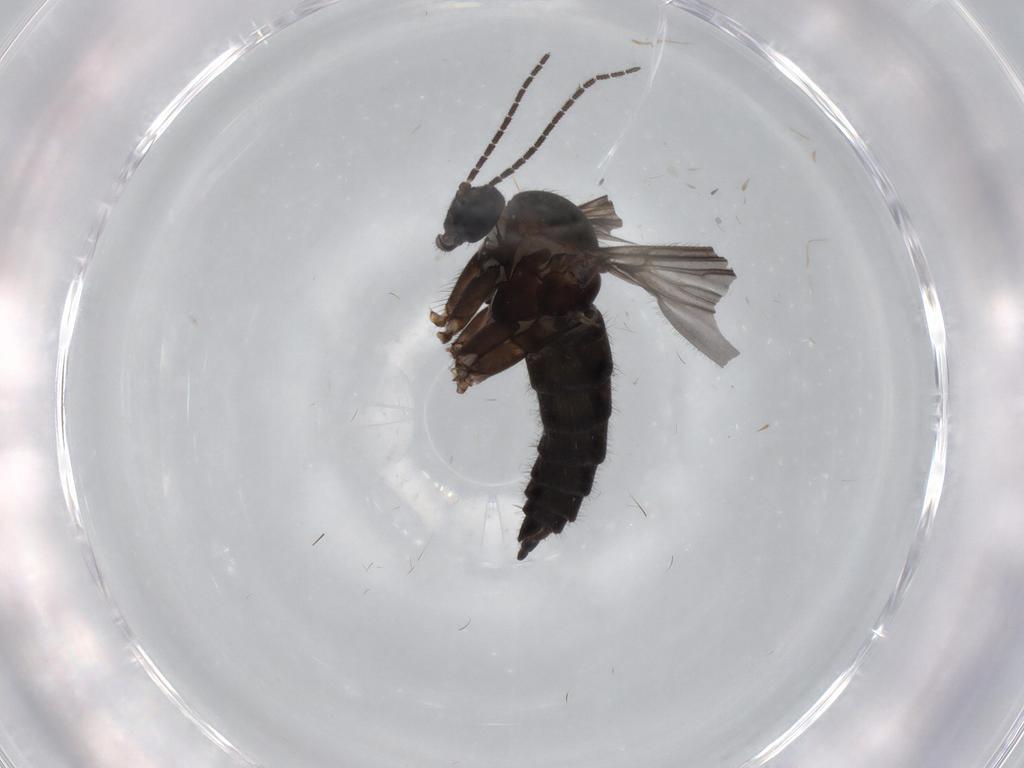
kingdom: Animalia
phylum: Arthropoda
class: Insecta
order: Diptera
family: Sciaridae
